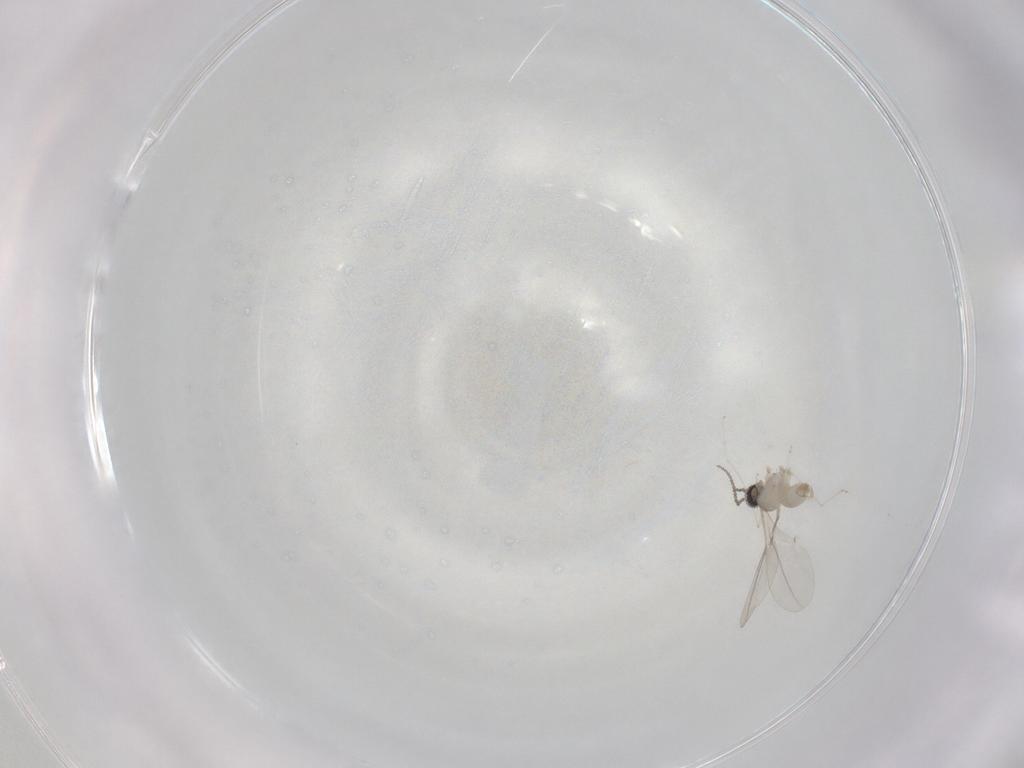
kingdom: Animalia
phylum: Arthropoda
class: Insecta
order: Diptera
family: Cecidomyiidae
